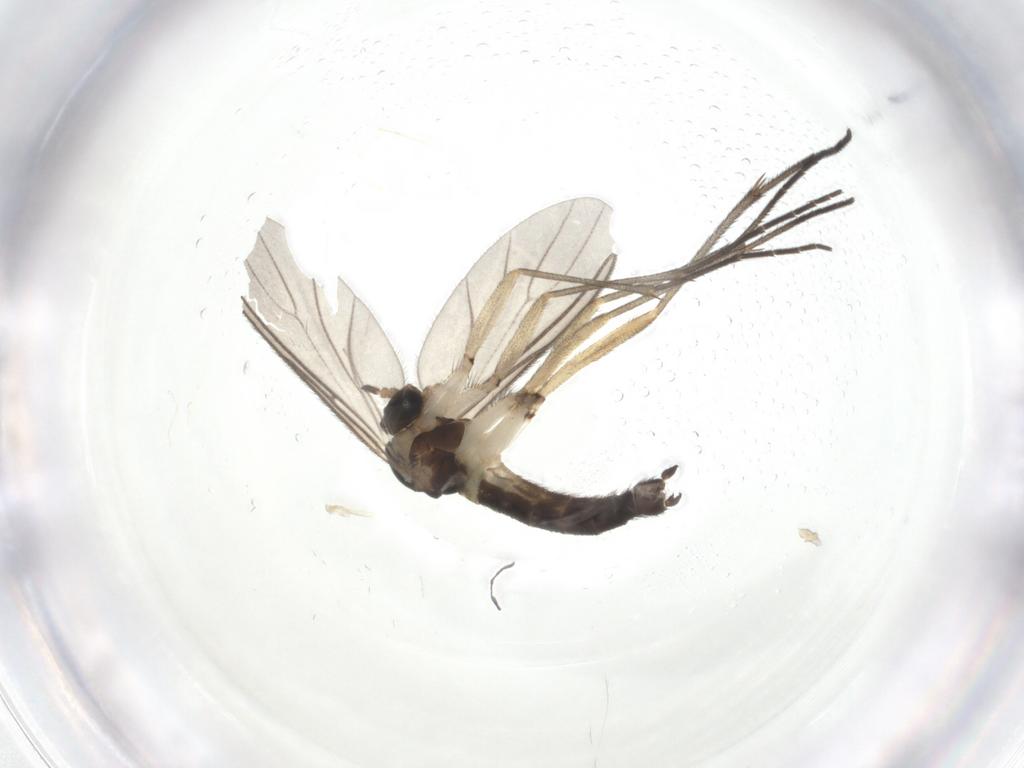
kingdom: Animalia
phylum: Arthropoda
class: Insecta
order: Diptera
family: Sciaridae
